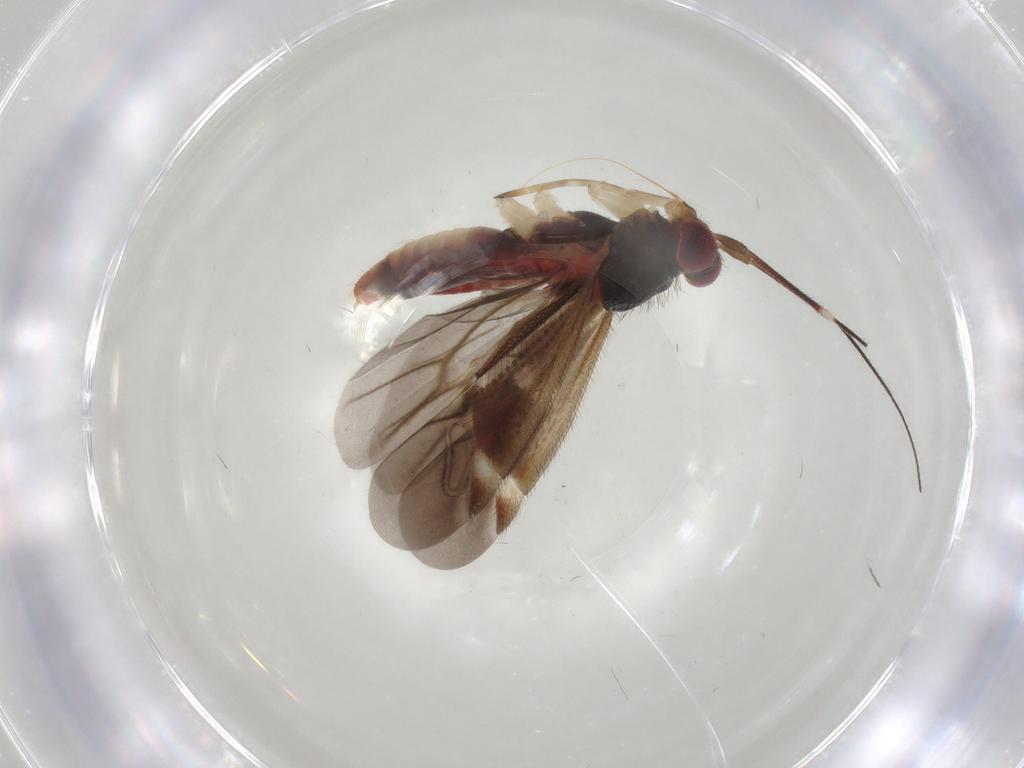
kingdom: Animalia
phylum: Arthropoda
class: Insecta
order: Hemiptera
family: Miridae
